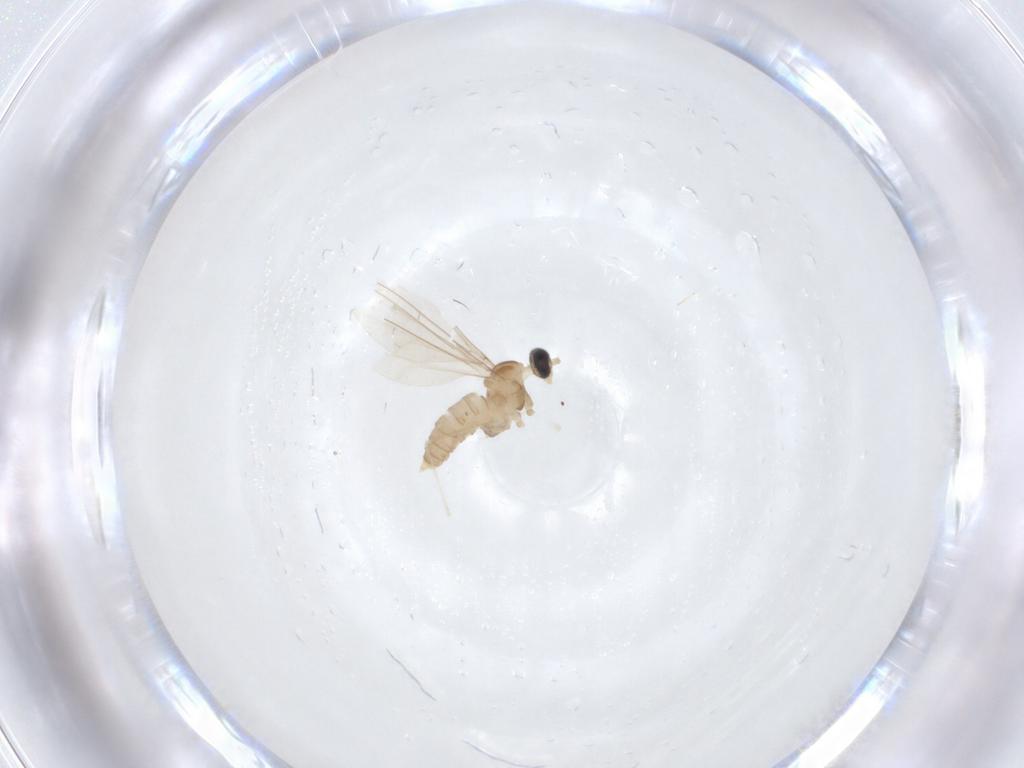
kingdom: Animalia
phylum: Arthropoda
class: Insecta
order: Diptera
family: Cecidomyiidae
